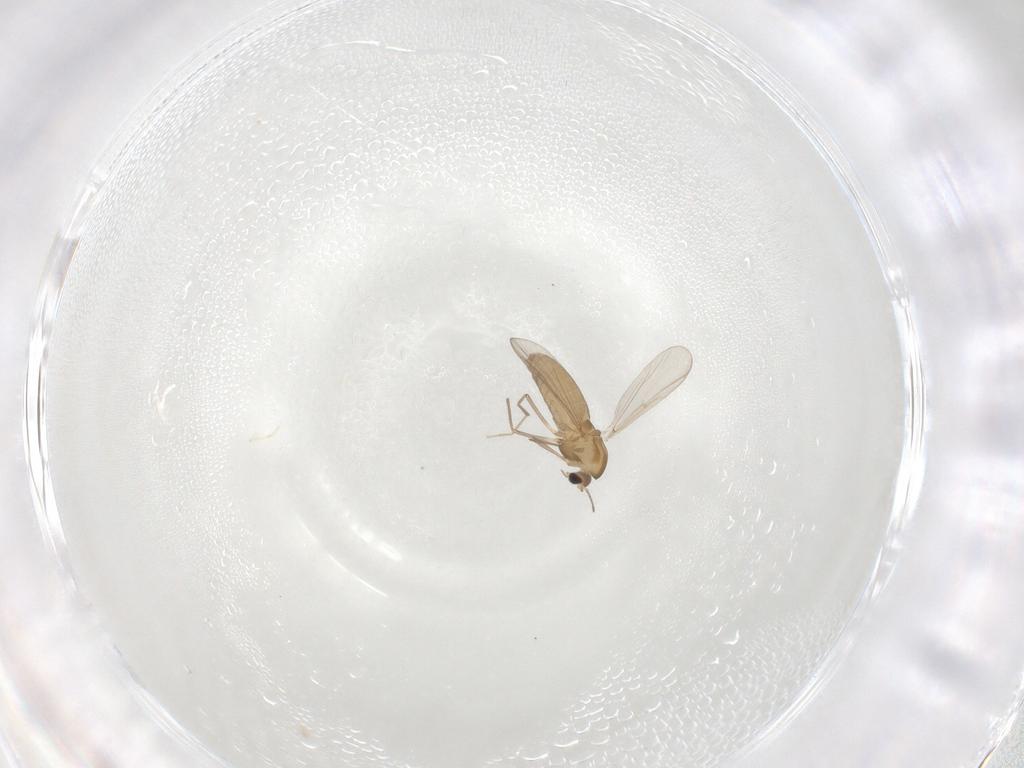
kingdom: Animalia
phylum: Arthropoda
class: Insecta
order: Diptera
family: Chironomidae
